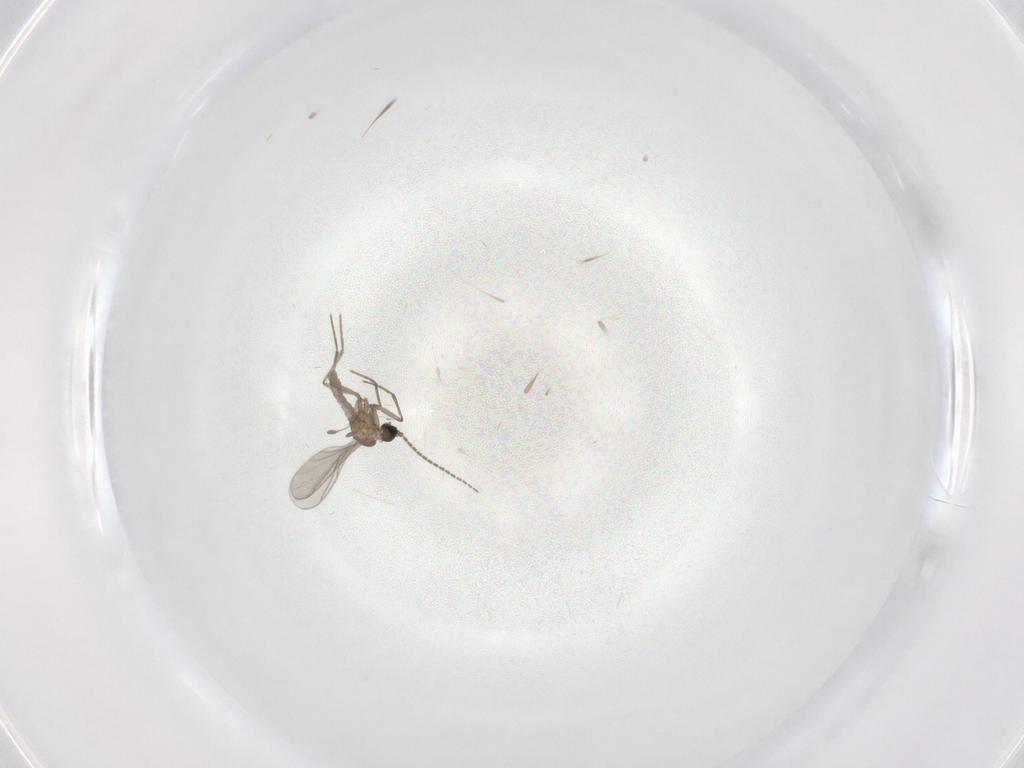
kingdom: Animalia
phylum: Arthropoda
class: Insecta
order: Diptera
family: Sciaridae
